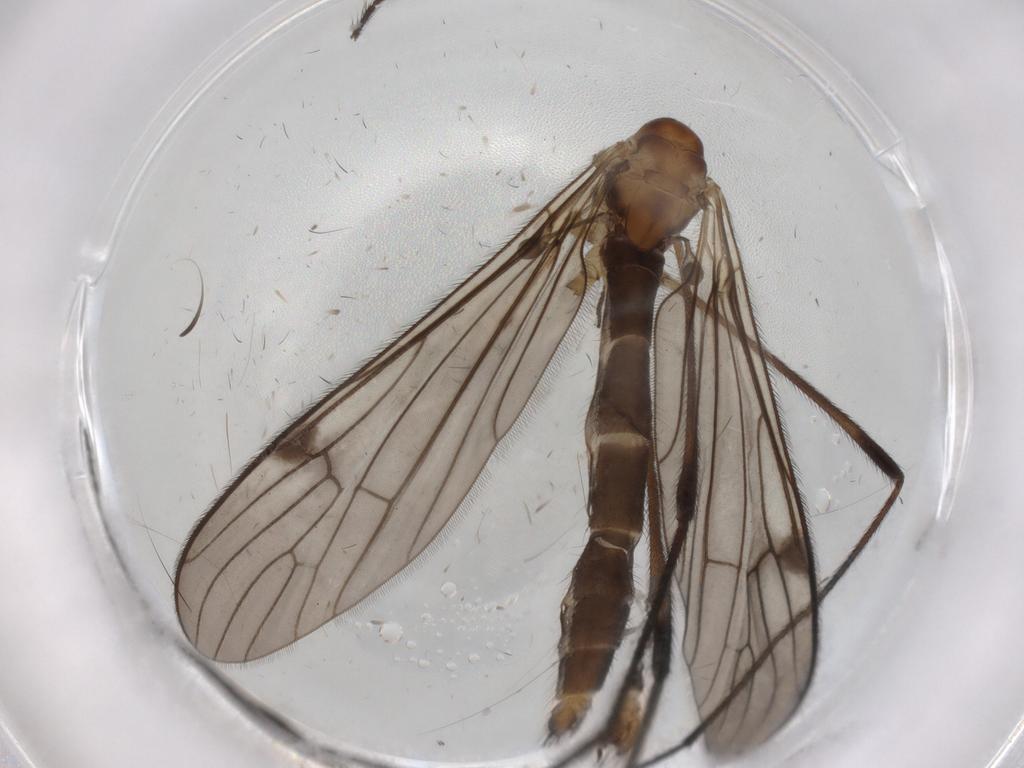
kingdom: Animalia
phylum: Arthropoda
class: Insecta
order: Diptera
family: Limoniidae
